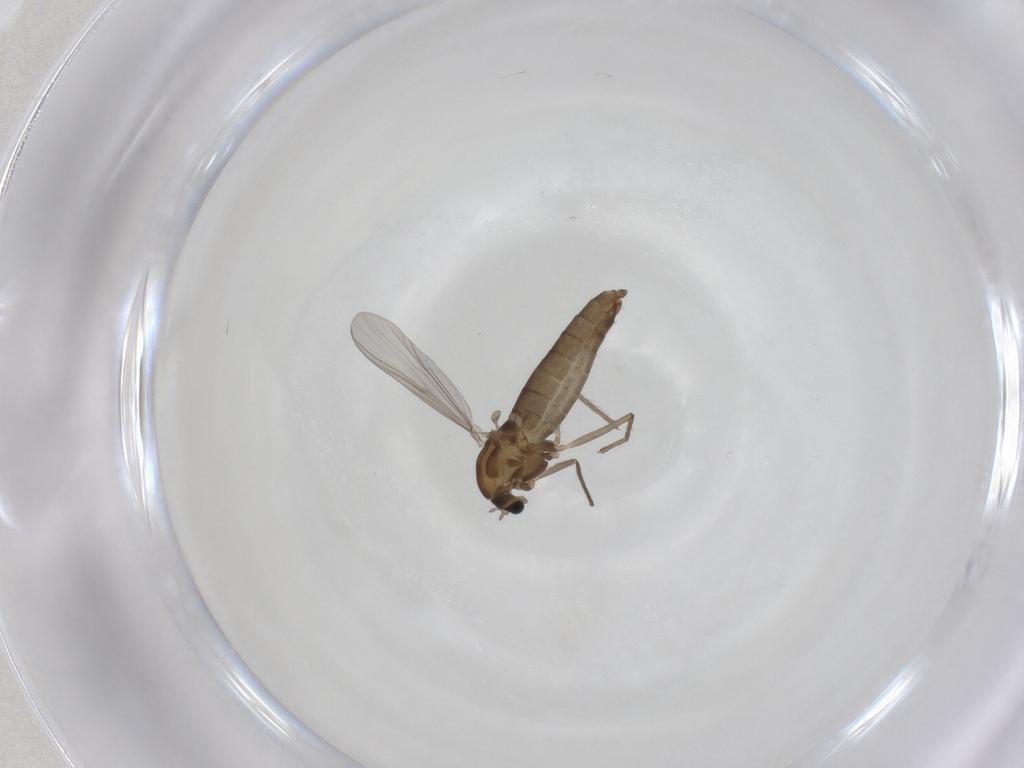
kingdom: Animalia
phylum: Arthropoda
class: Insecta
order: Diptera
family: Chironomidae
